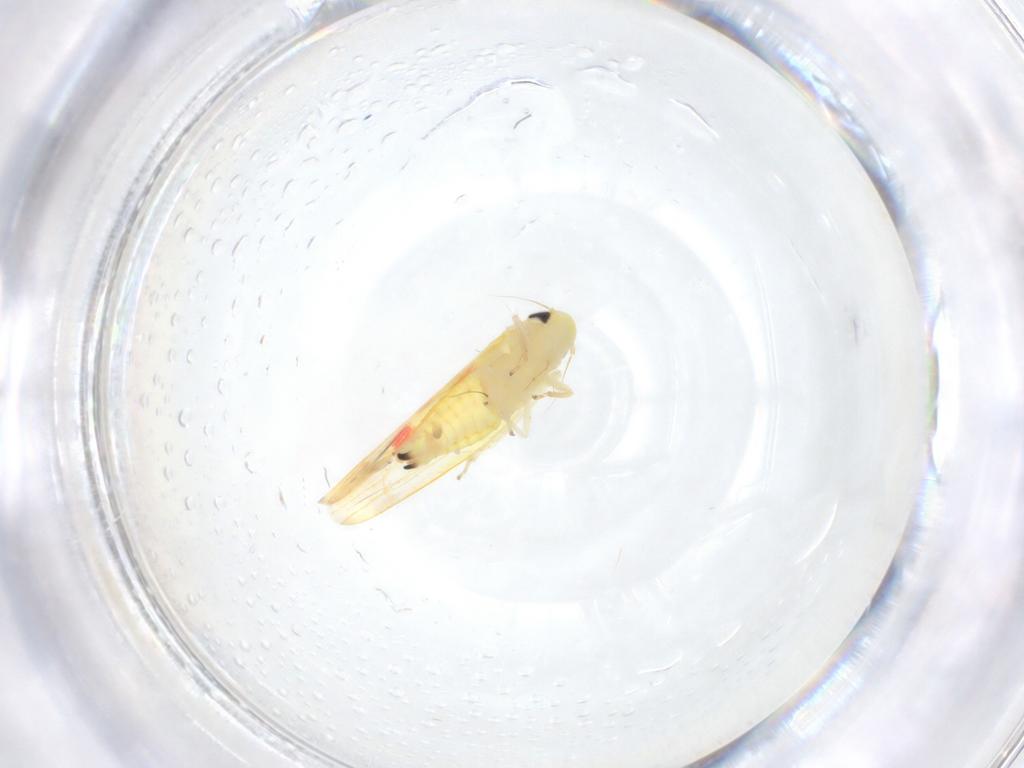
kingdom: Animalia
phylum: Arthropoda
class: Insecta
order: Hemiptera
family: Cicadellidae
